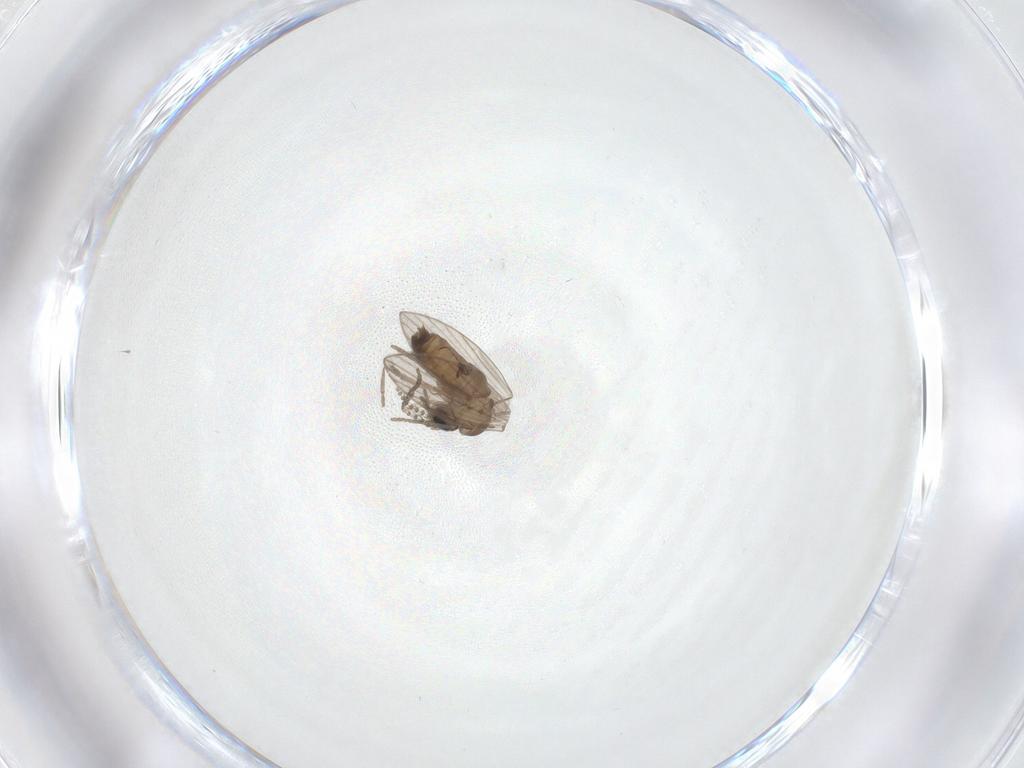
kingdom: Animalia
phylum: Arthropoda
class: Insecta
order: Diptera
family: Psychodidae
